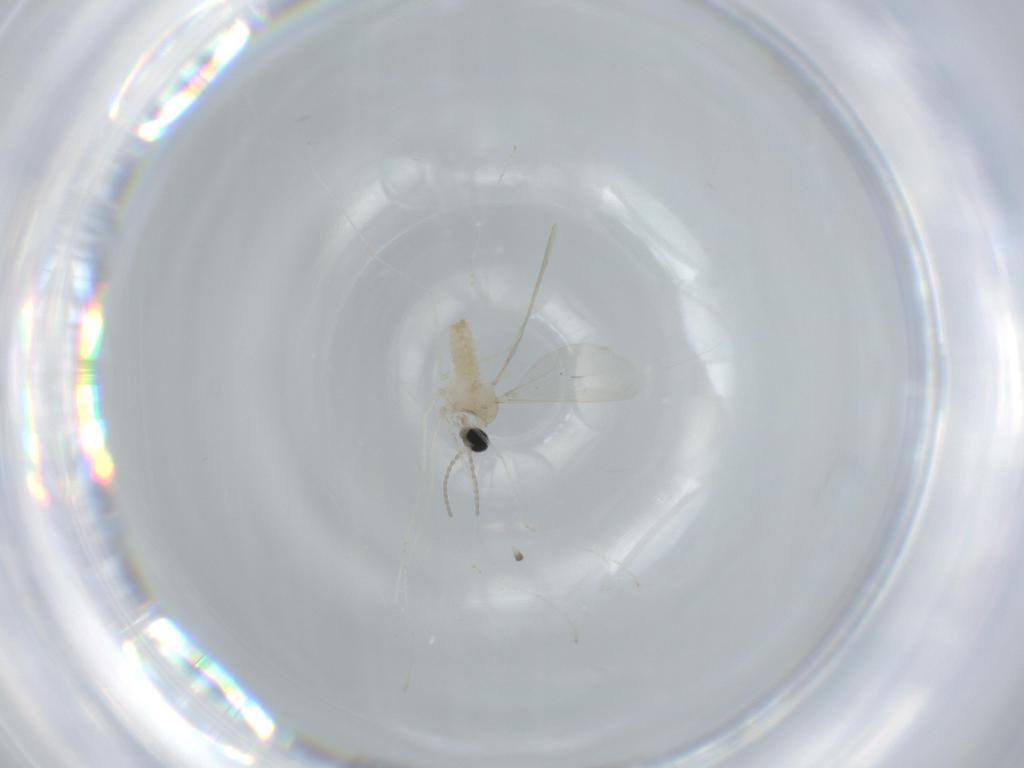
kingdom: Animalia
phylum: Arthropoda
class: Insecta
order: Diptera
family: Cecidomyiidae
